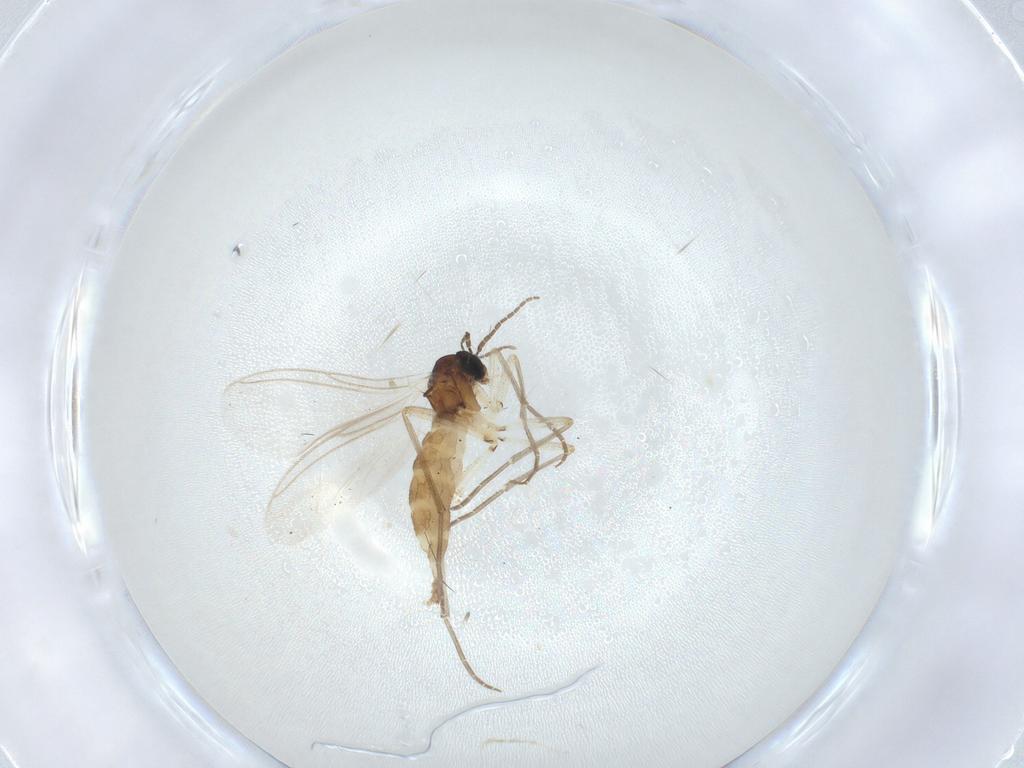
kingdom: Animalia
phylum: Arthropoda
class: Insecta
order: Diptera
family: Sciaridae
